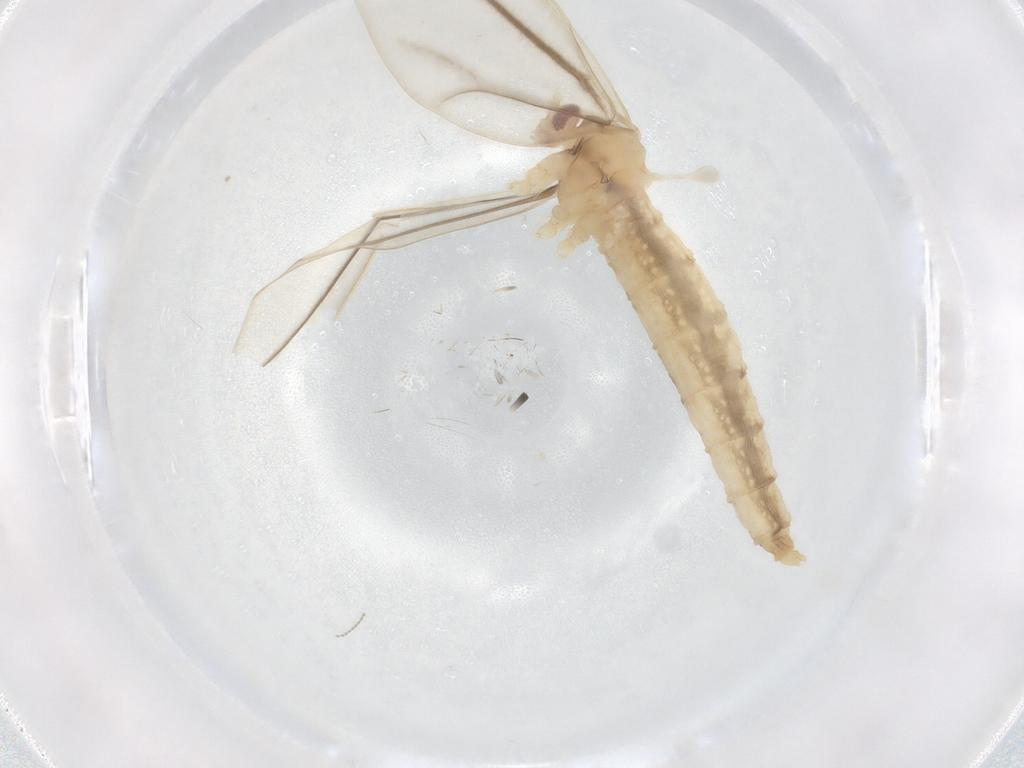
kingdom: Animalia
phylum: Arthropoda
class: Insecta
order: Diptera
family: Cecidomyiidae
